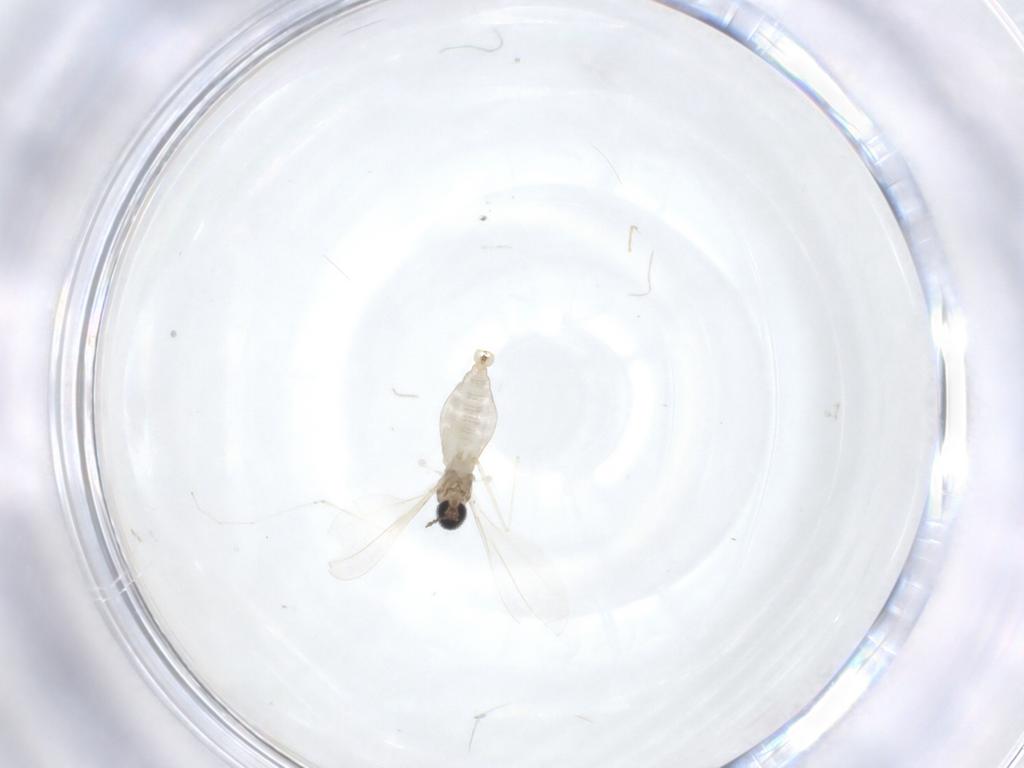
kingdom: Animalia
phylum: Arthropoda
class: Insecta
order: Diptera
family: Cecidomyiidae
